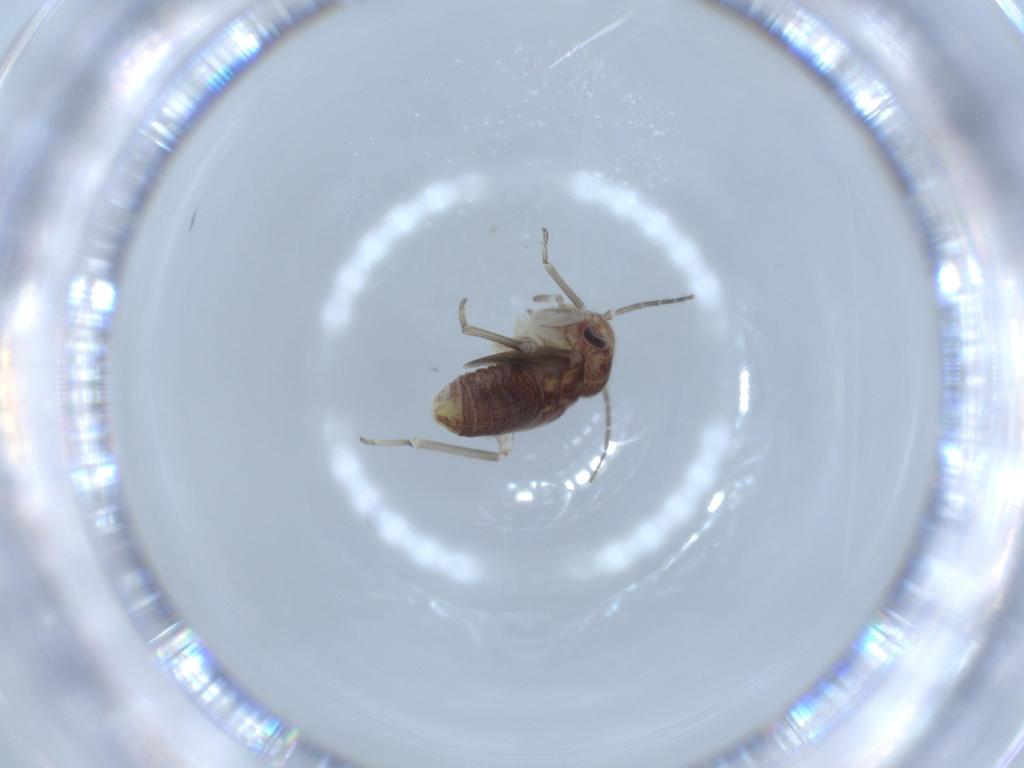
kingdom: Animalia
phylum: Arthropoda
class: Insecta
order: Psocodea
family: Myopsocidae
